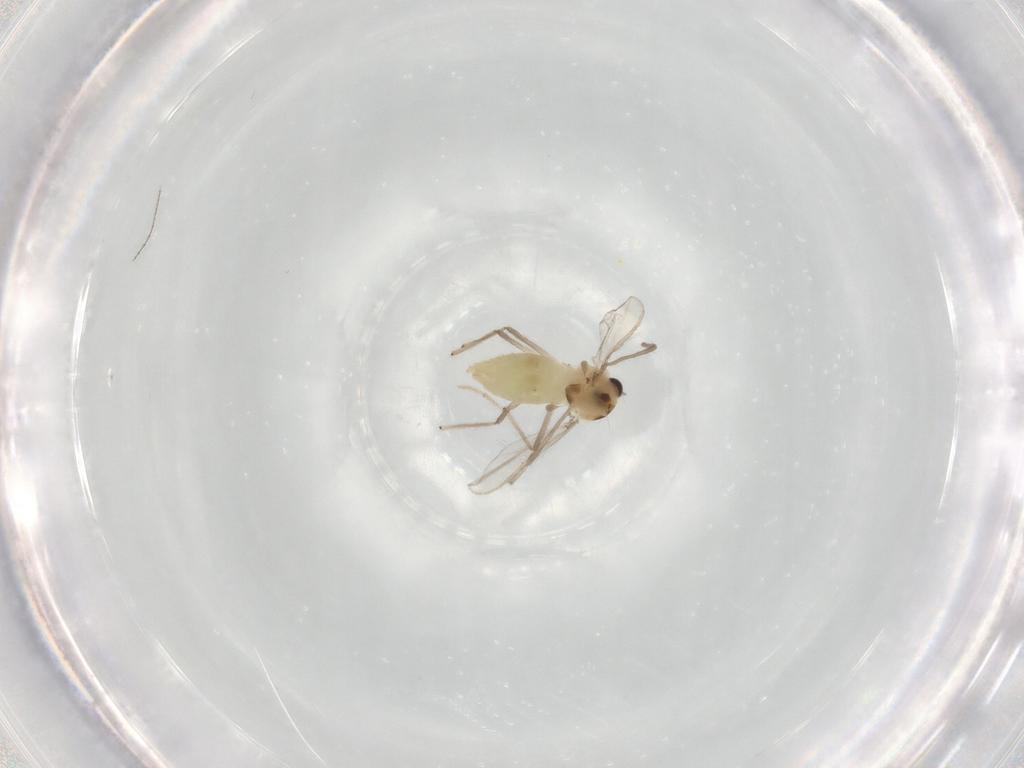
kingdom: Animalia
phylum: Arthropoda
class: Insecta
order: Diptera
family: Chironomidae
